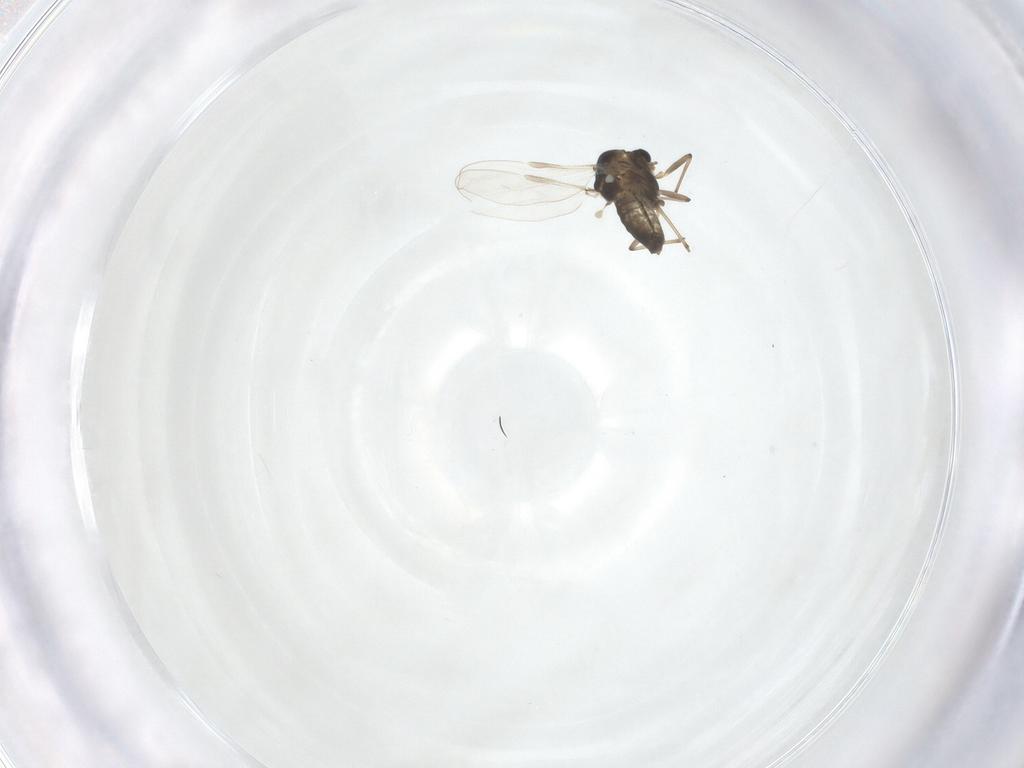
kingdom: Animalia
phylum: Arthropoda
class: Insecta
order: Diptera
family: Chironomidae
